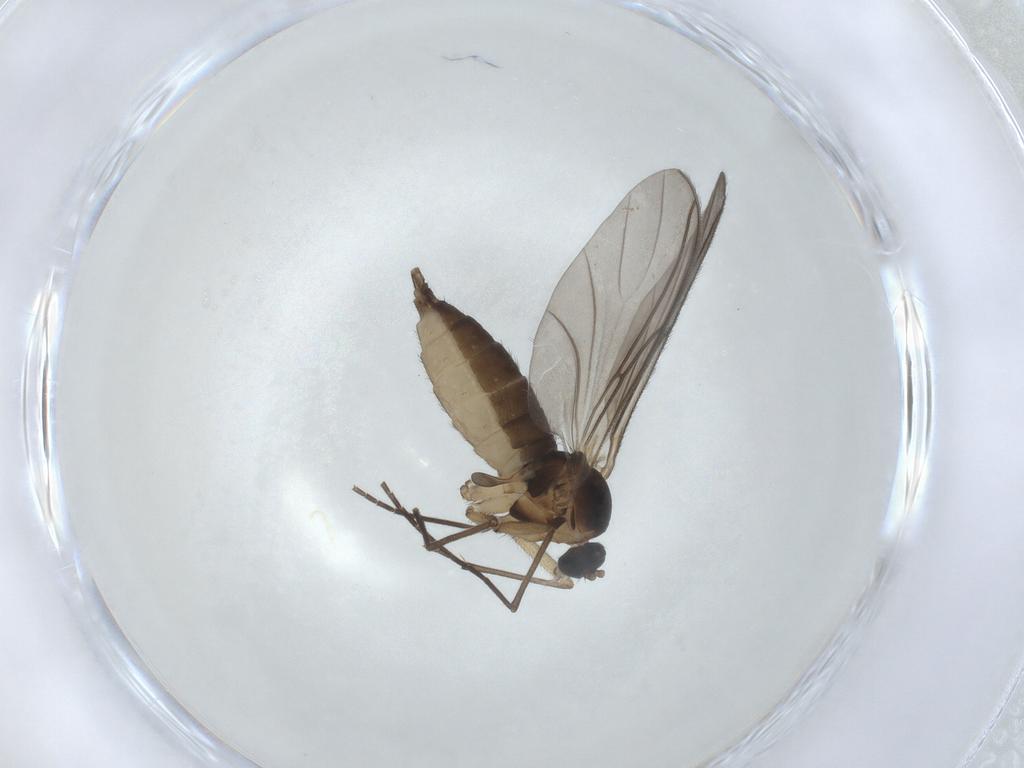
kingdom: Animalia
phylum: Arthropoda
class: Insecta
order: Diptera
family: Sciaridae
